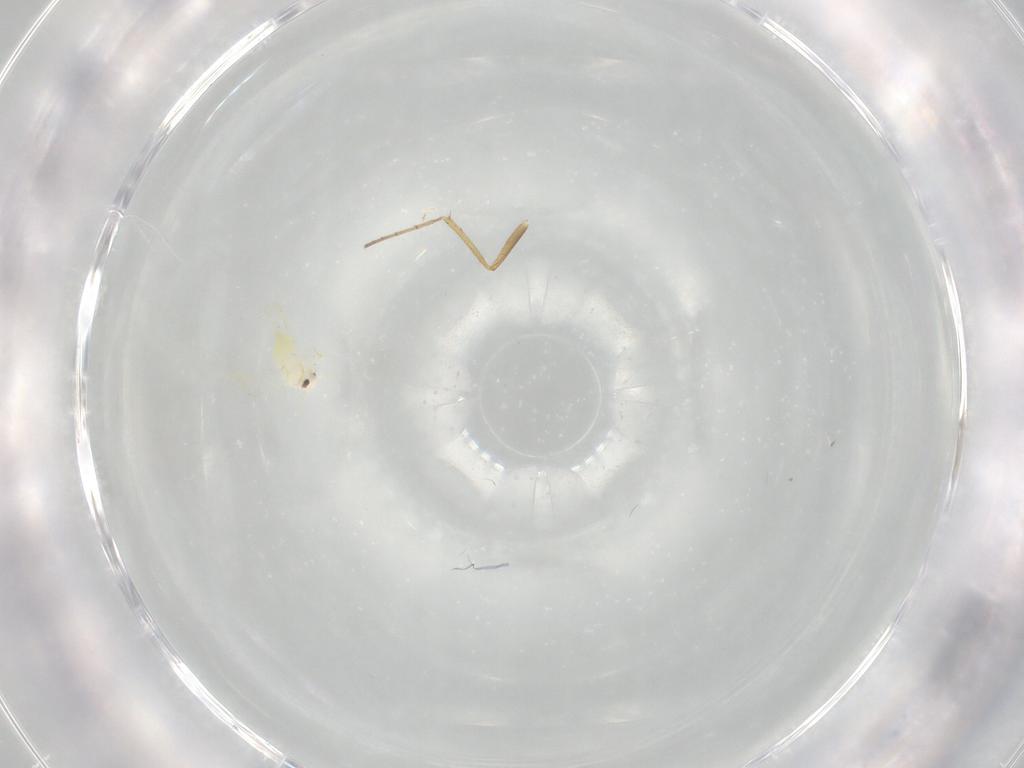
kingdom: Animalia
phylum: Arthropoda
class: Insecta
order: Hemiptera
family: Aleyrodidae
